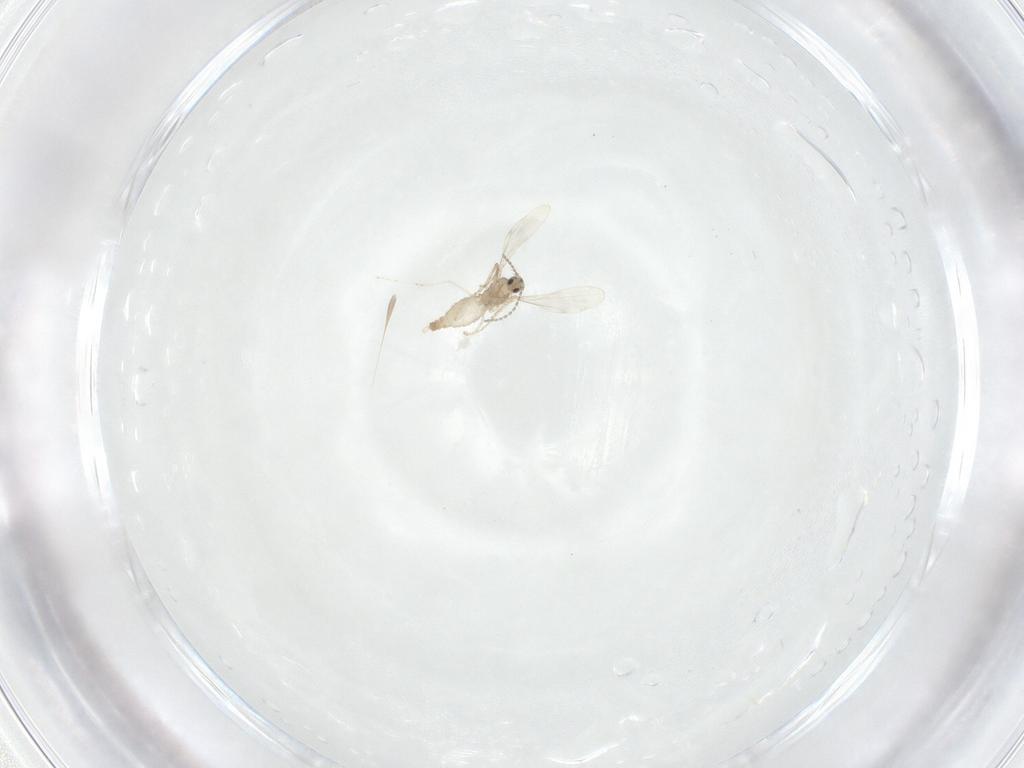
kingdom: Animalia
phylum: Arthropoda
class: Insecta
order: Diptera
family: Cecidomyiidae
